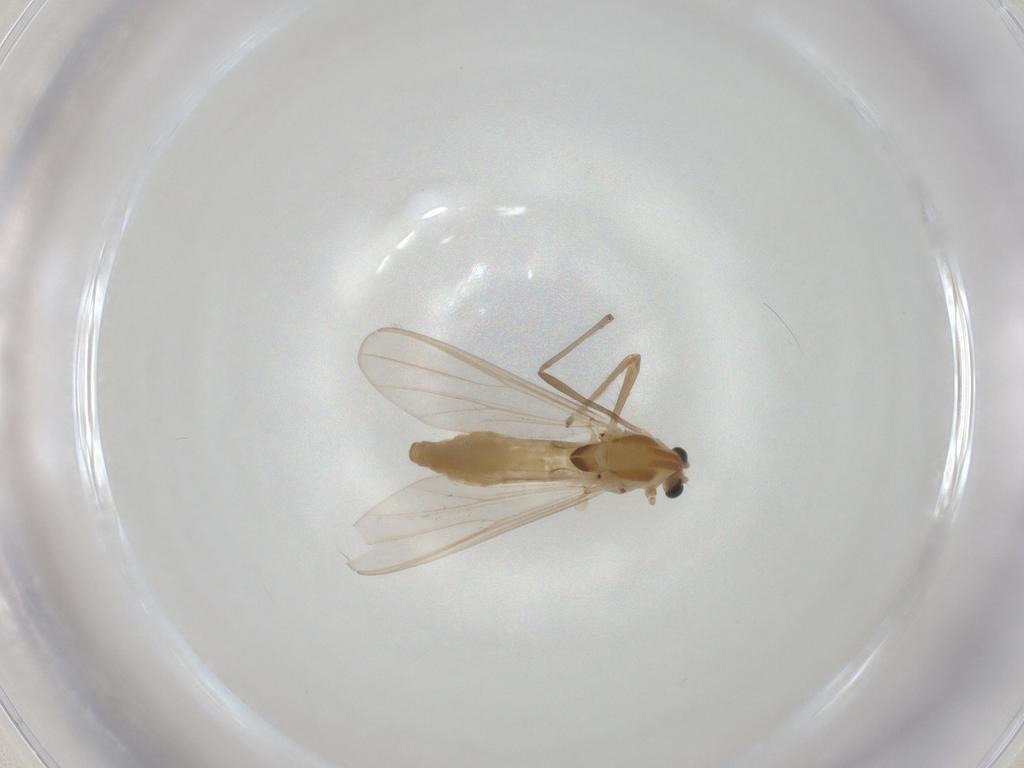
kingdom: Animalia
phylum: Arthropoda
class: Insecta
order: Diptera
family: Chironomidae
